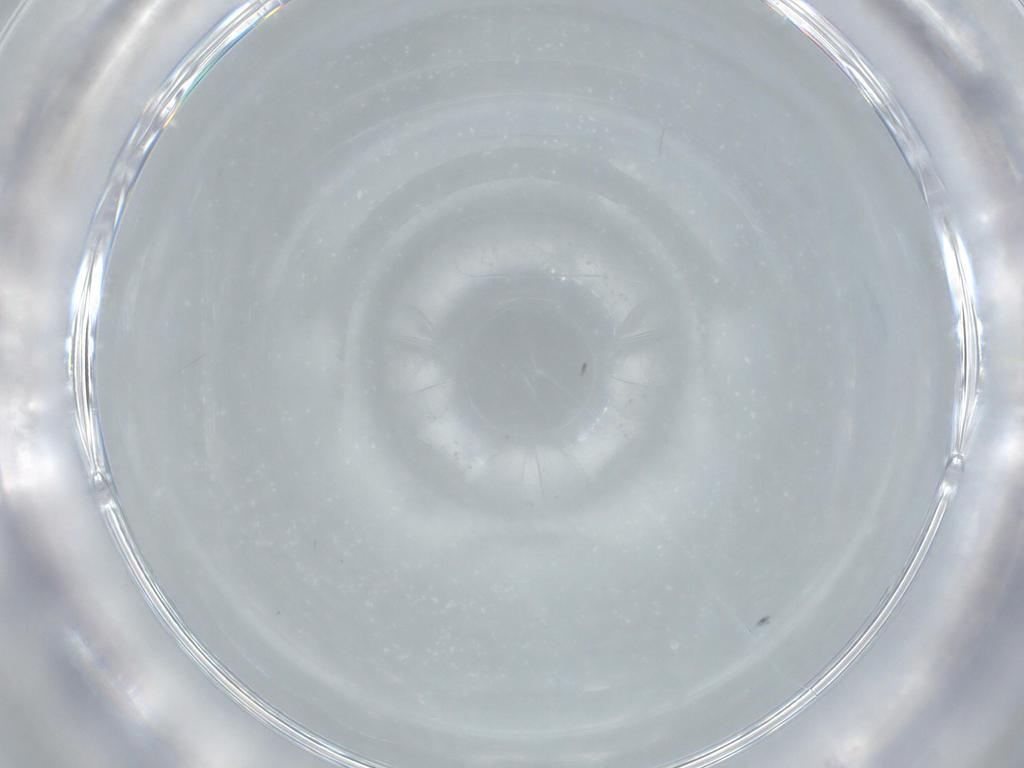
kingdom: Animalia
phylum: Arthropoda
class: Insecta
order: Diptera
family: Sphaeroceridae
